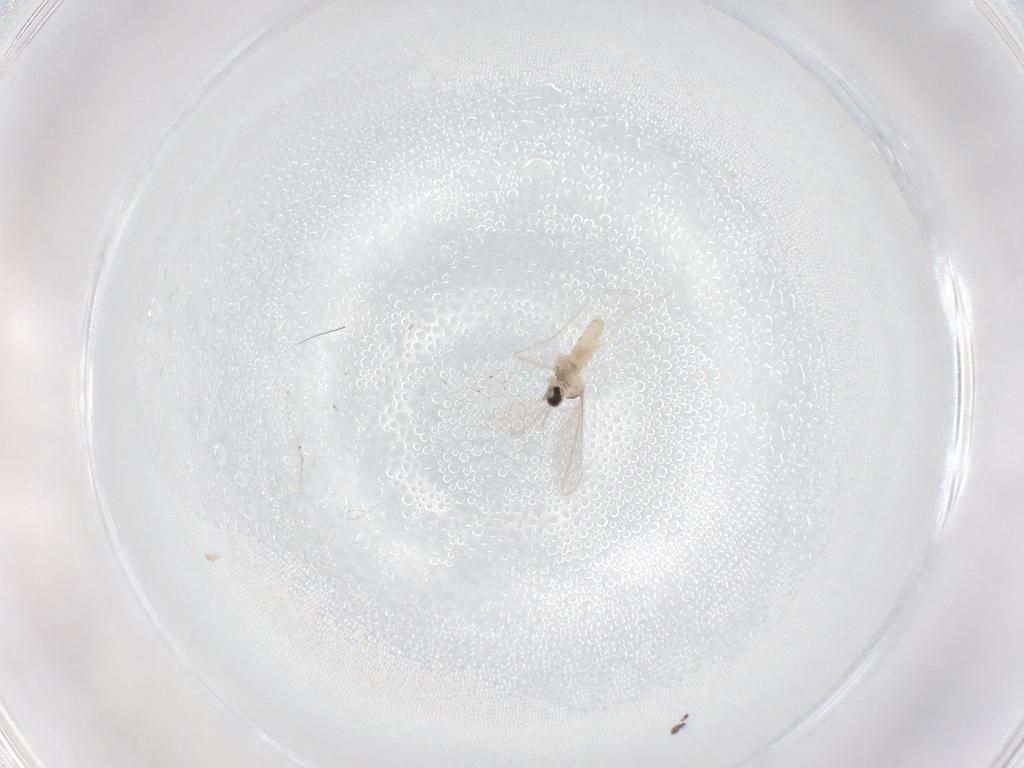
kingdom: Animalia
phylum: Arthropoda
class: Insecta
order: Diptera
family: Cecidomyiidae
